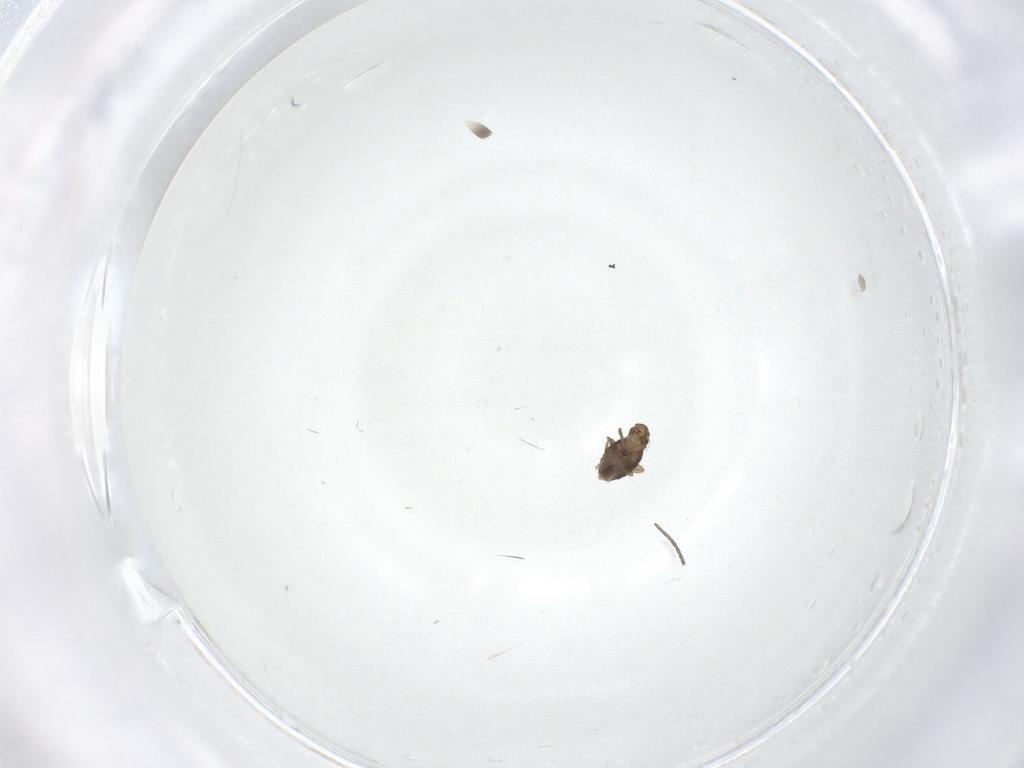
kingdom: Animalia
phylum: Arthropoda
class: Insecta
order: Diptera
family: Phoridae
